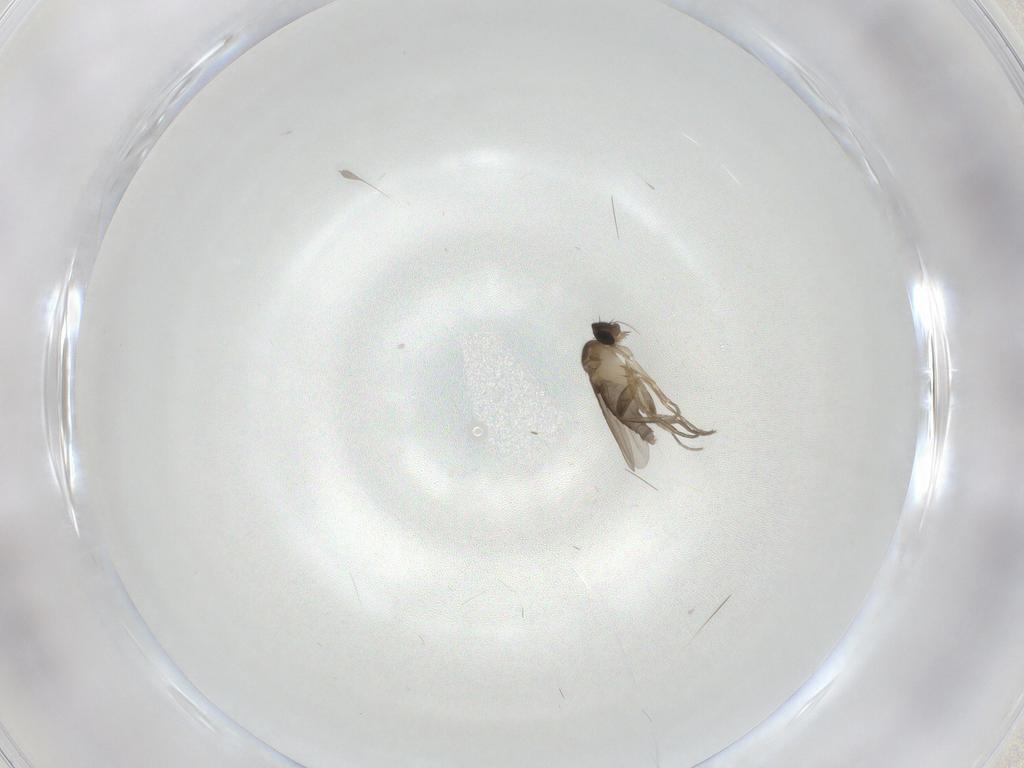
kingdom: Animalia
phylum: Arthropoda
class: Insecta
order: Diptera
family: Phoridae
